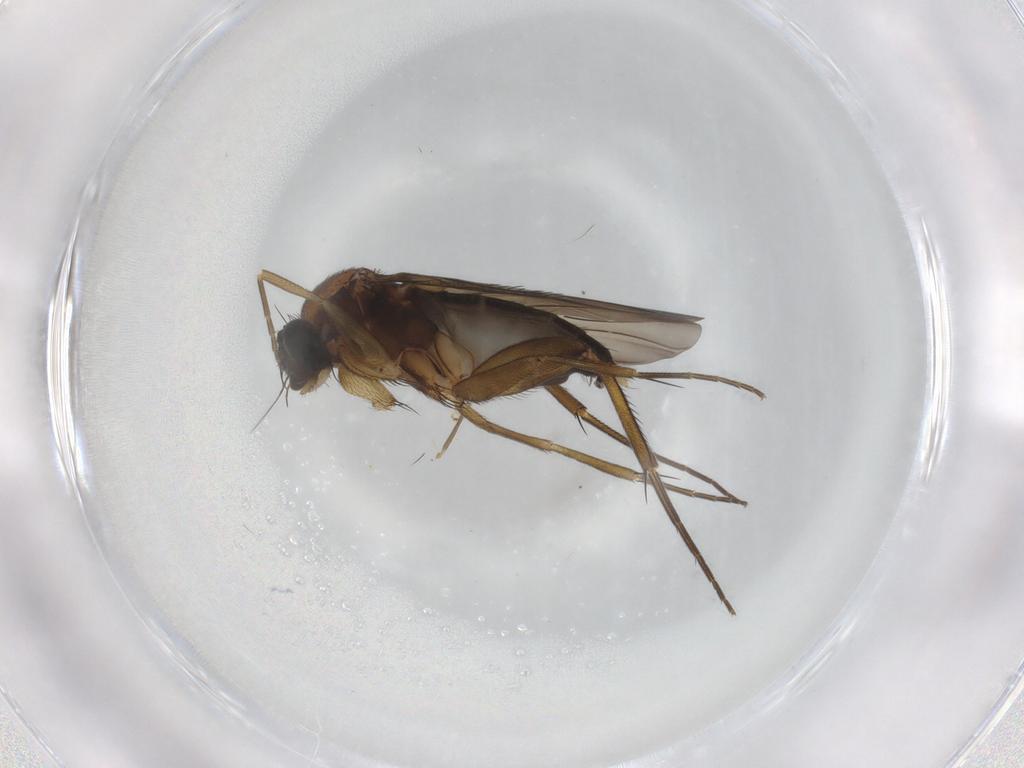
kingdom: Animalia
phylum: Arthropoda
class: Insecta
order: Diptera
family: Phoridae
